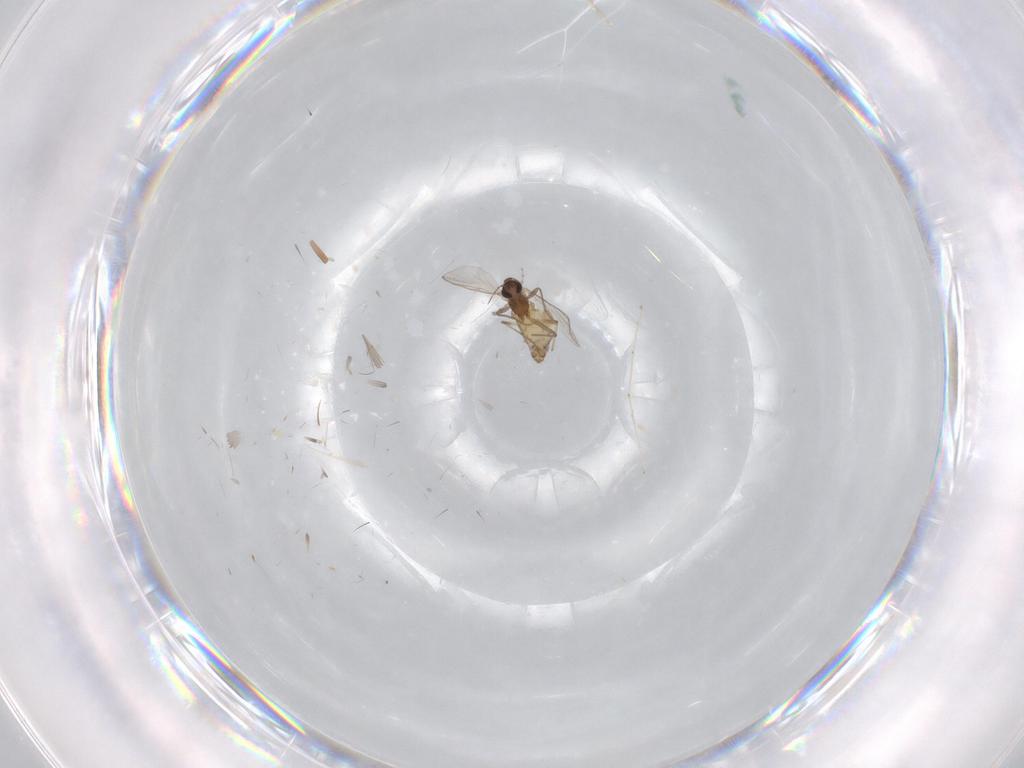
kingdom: Animalia
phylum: Arthropoda
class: Insecta
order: Diptera
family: Chironomidae
